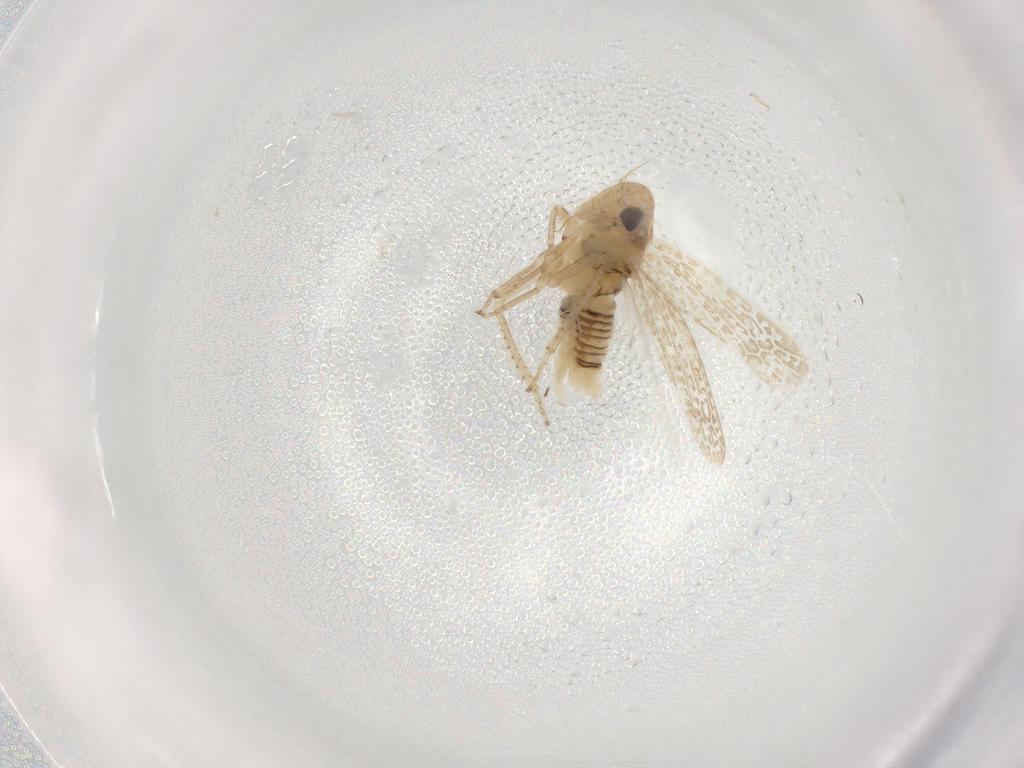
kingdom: Animalia
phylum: Arthropoda
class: Insecta
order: Hemiptera
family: Cicadellidae
